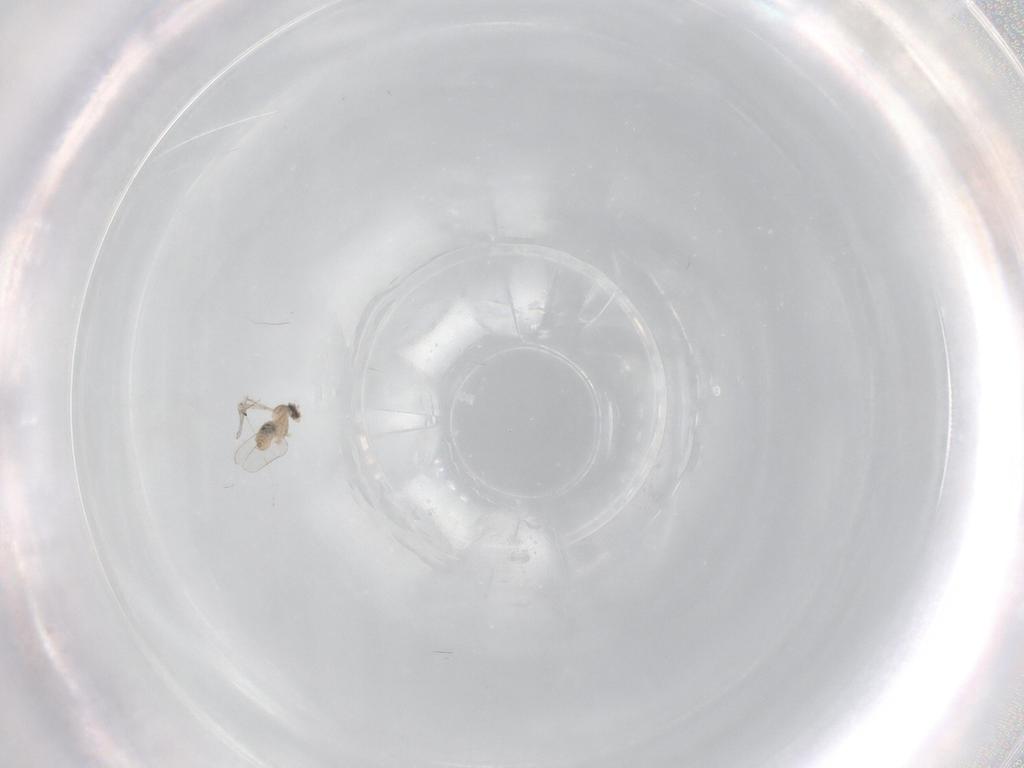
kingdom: Animalia
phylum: Arthropoda
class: Insecta
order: Diptera
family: Cecidomyiidae
